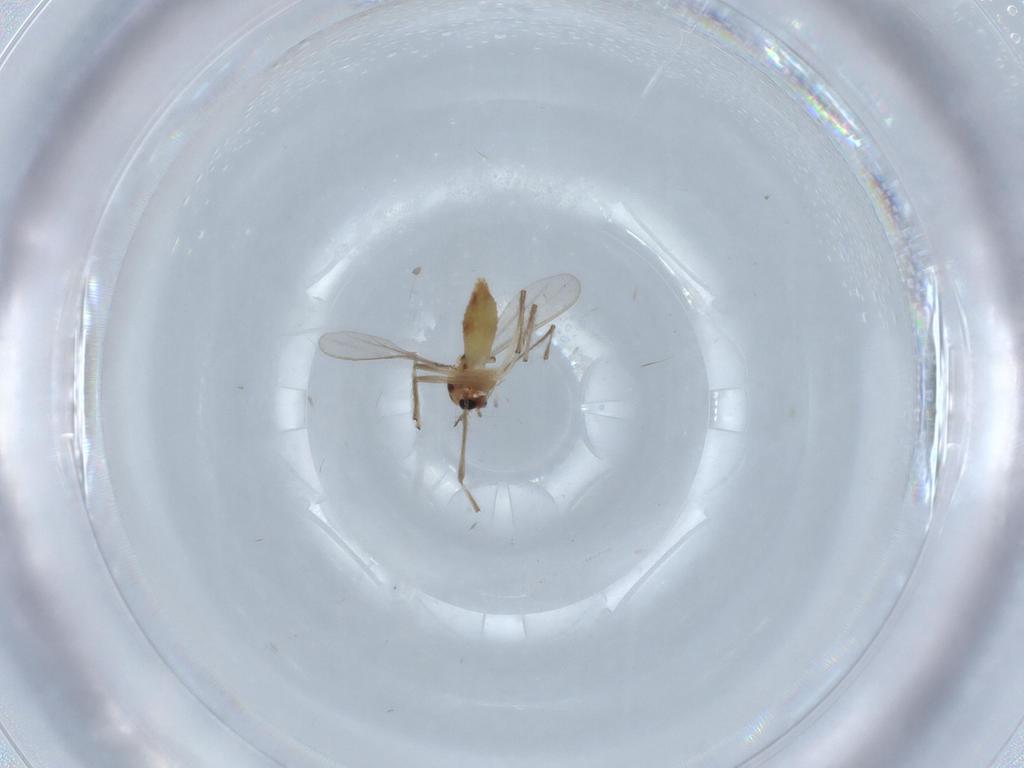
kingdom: Animalia
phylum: Arthropoda
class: Insecta
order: Diptera
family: Chironomidae
